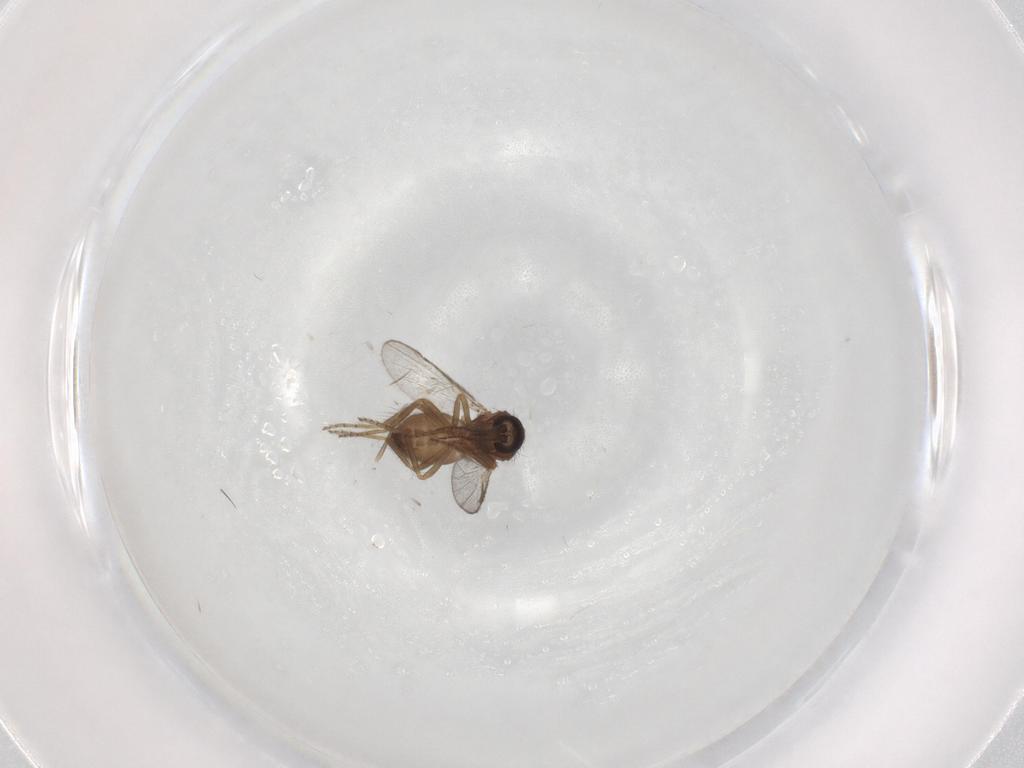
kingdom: Animalia
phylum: Arthropoda
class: Insecta
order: Diptera
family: Ceratopogonidae
